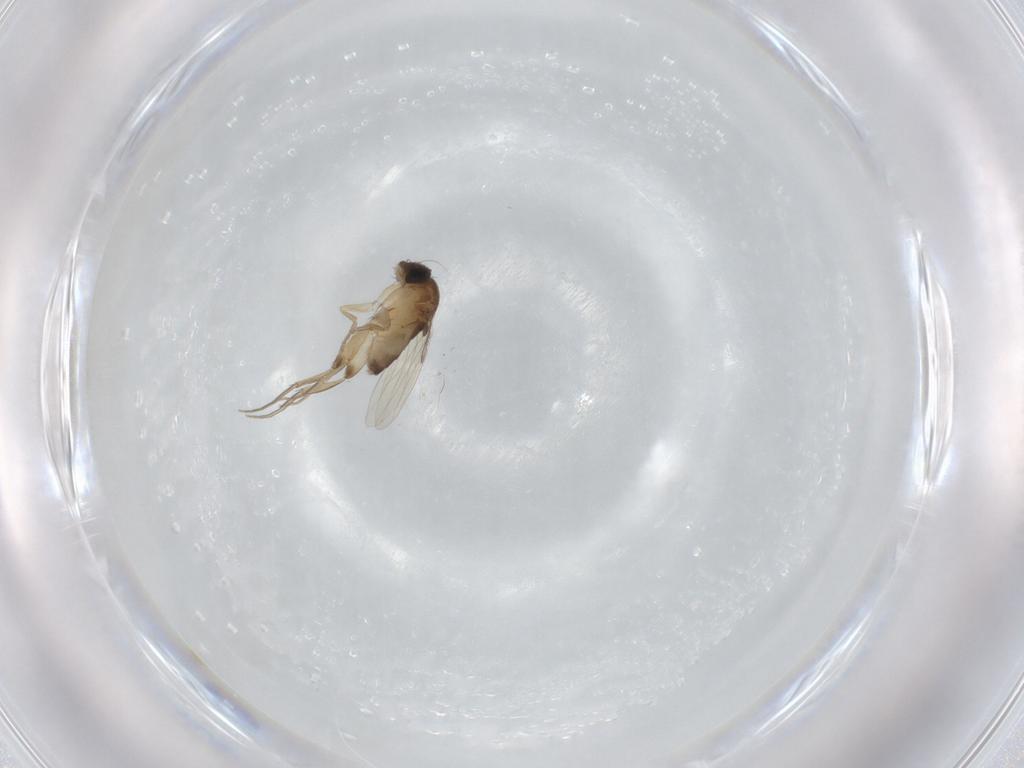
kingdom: Animalia
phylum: Arthropoda
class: Insecta
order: Diptera
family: Phoridae
